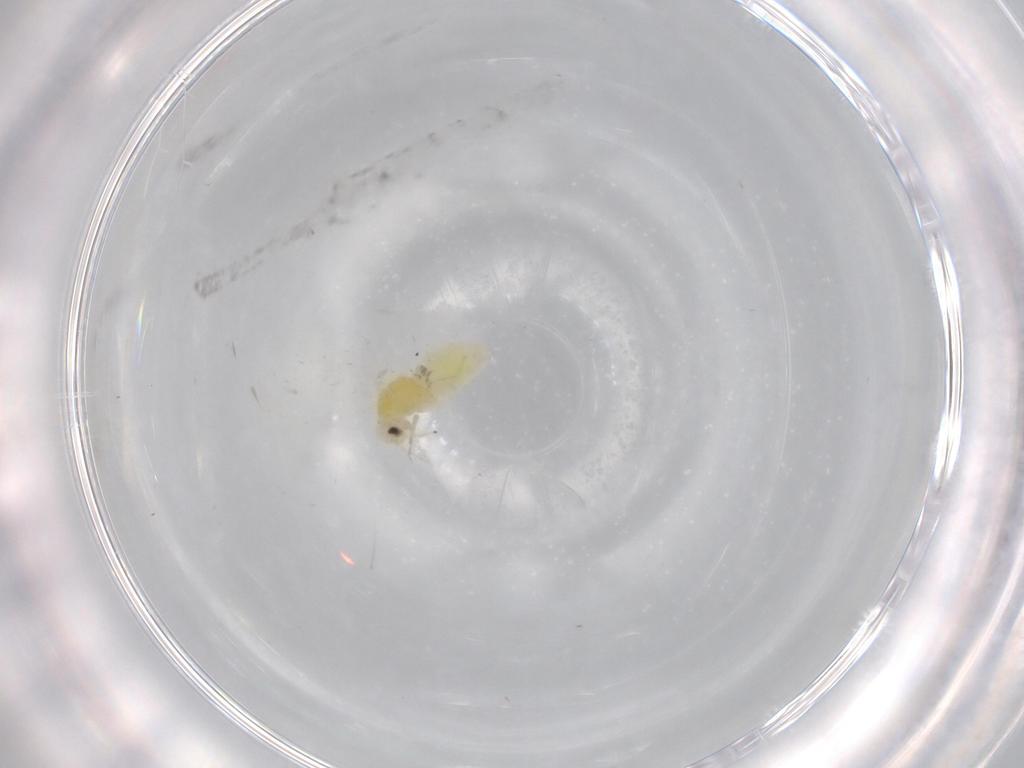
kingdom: Animalia
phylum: Arthropoda
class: Insecta
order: Hemiptera
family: Aleyrodidae
